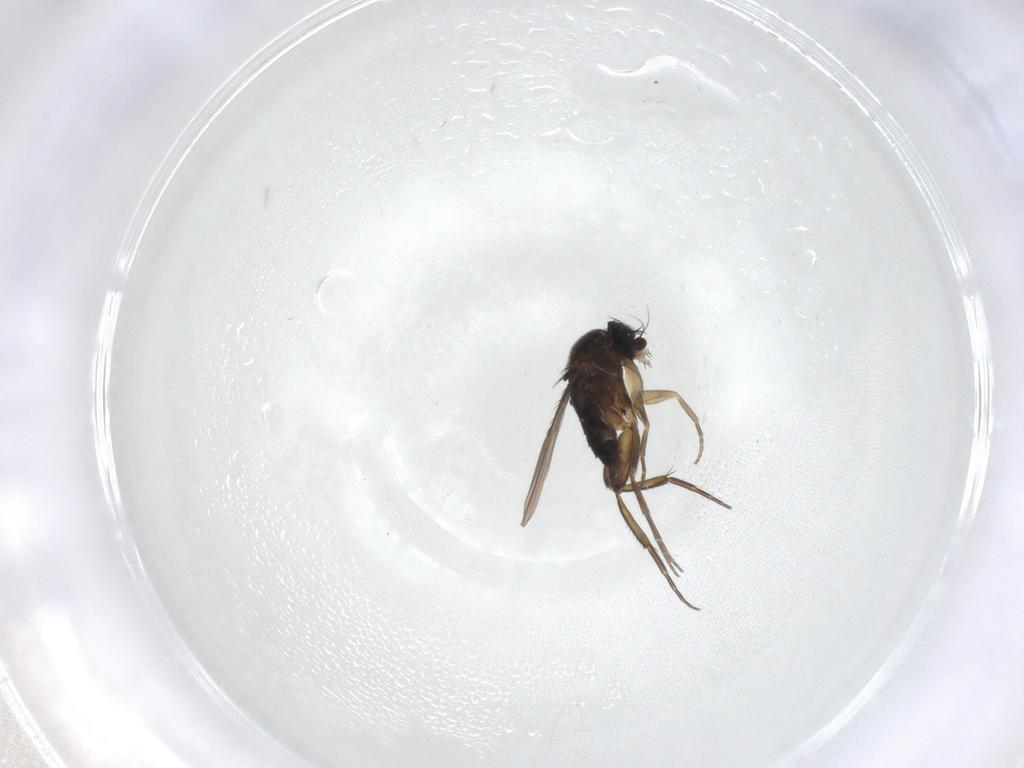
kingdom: Animalia
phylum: Arthropoda
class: Insecta
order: Diptera
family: Phoridae
